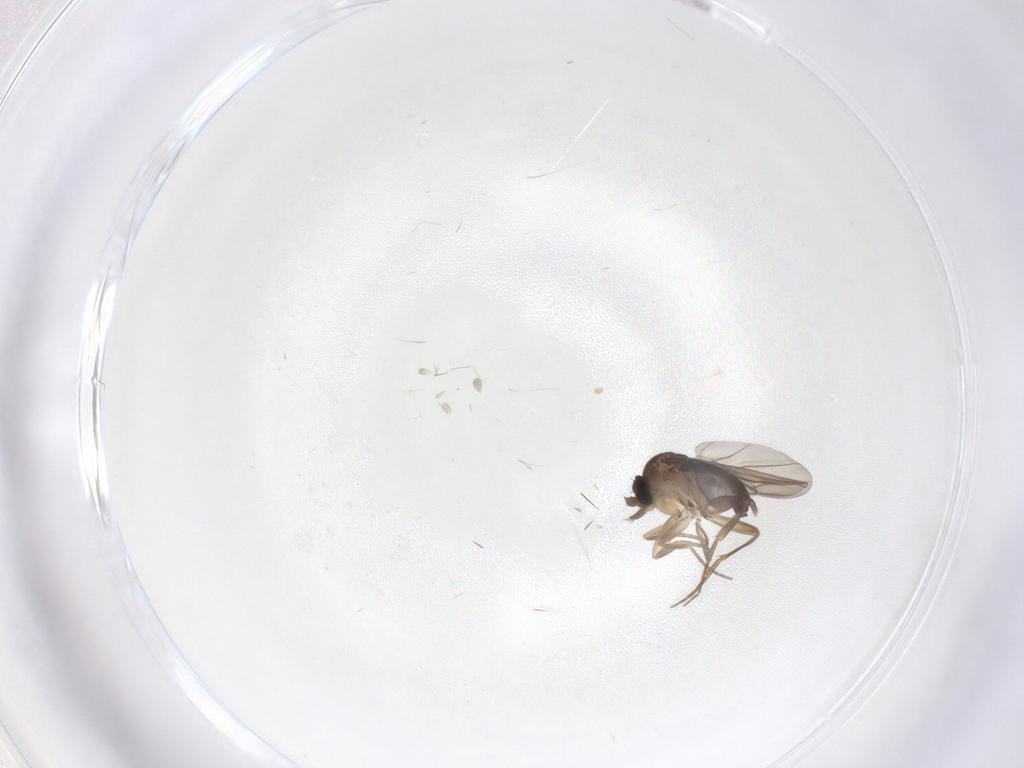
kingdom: Animalia
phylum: Arthropoda
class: Insecta
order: Diptera
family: Phoridae
